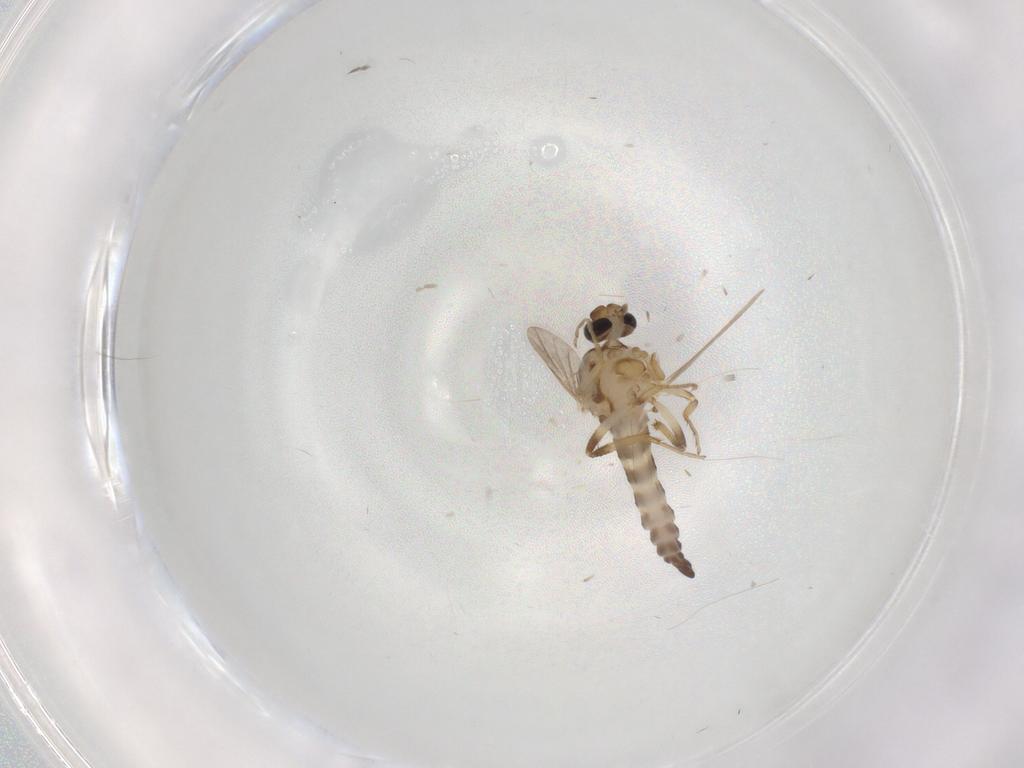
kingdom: Animalia
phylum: Arthropoda
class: Insecta
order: Diptera
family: Ceratopogonidae
